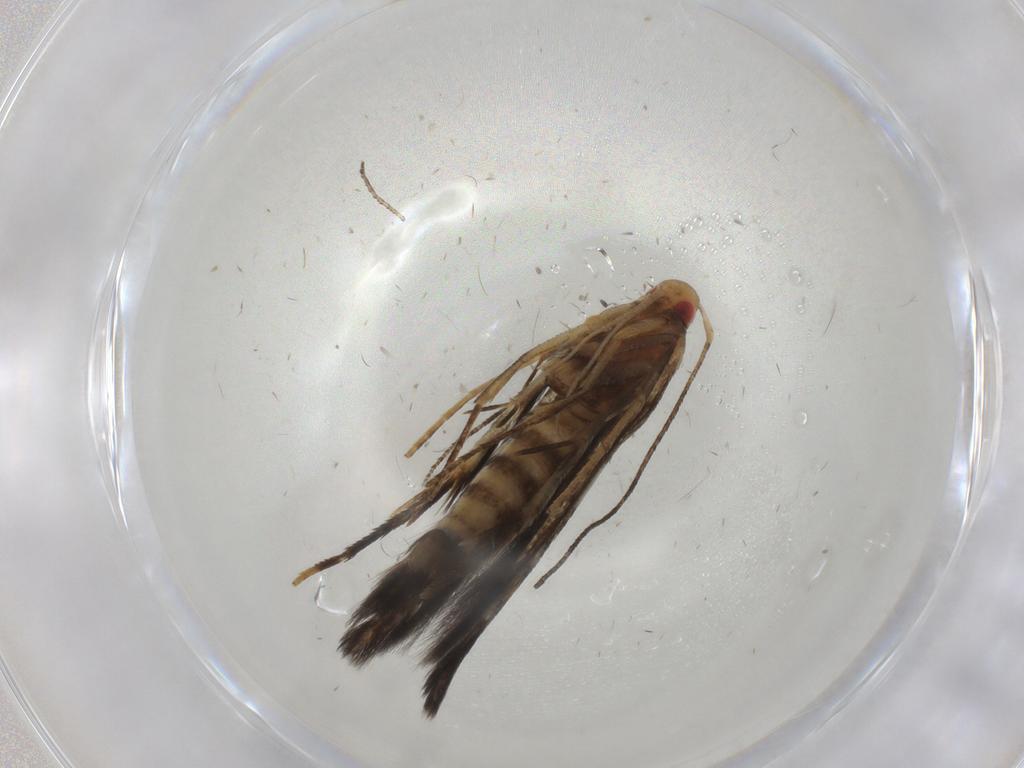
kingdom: Animalia
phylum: Arthropoda
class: Insecta
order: Lepidoptera
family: Cosmopterigidae
